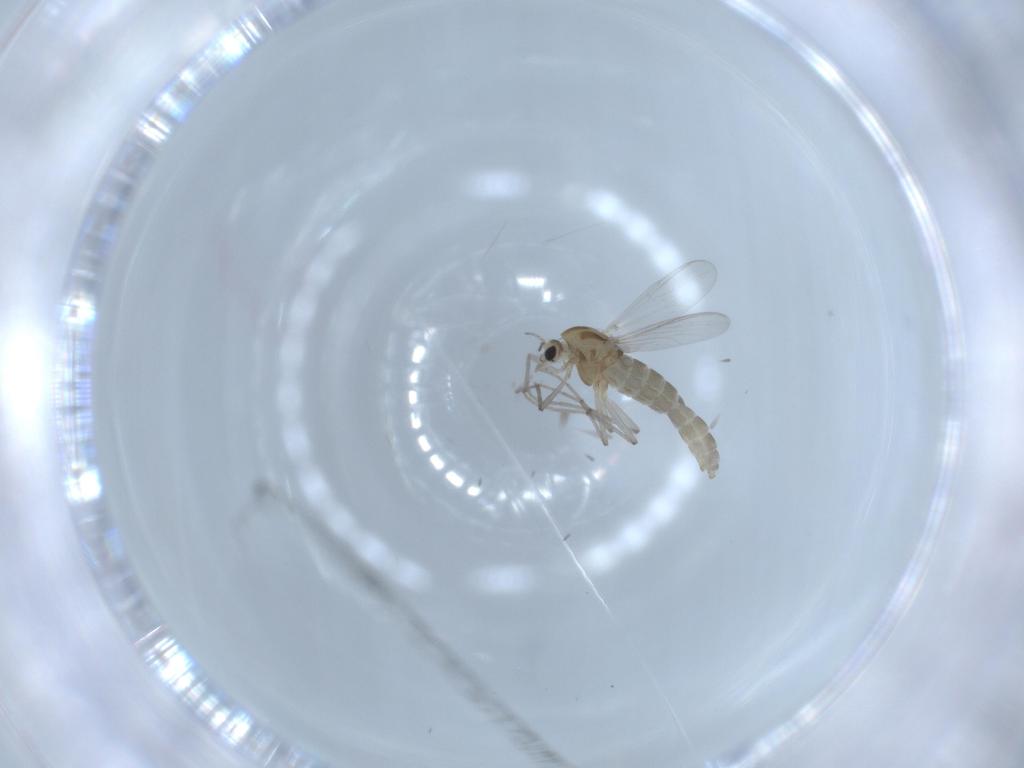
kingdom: Animalia
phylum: Arthropoda
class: Insecta
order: Diptera
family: Chironomidae
